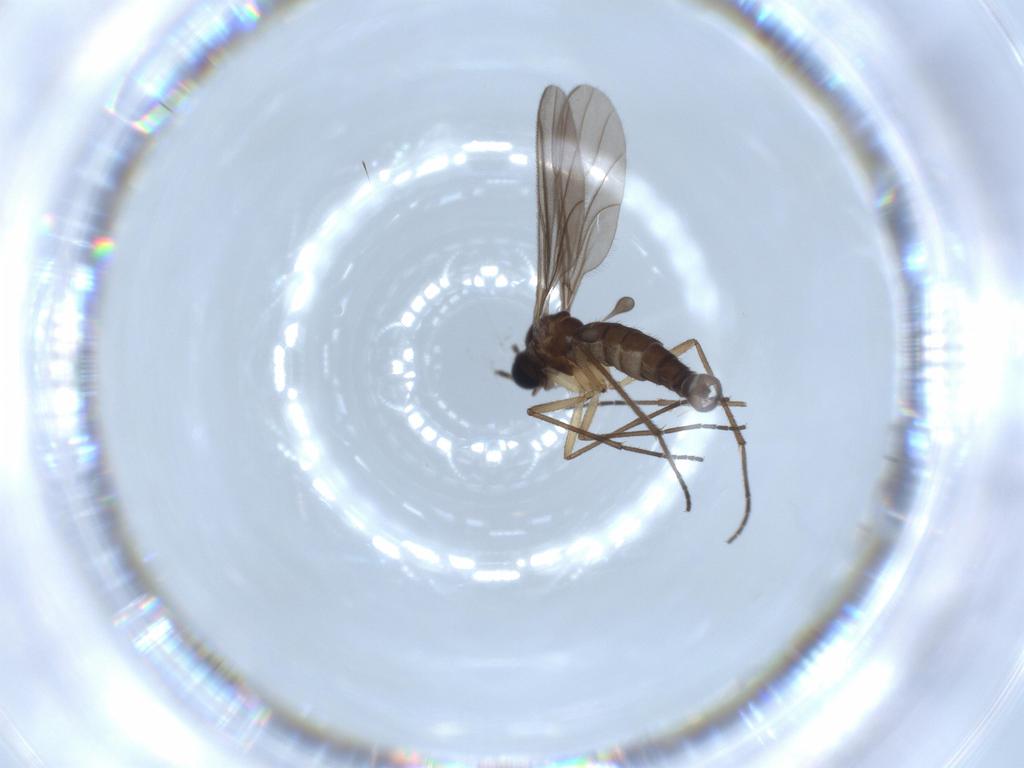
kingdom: Animalia
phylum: Arthropoda
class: Insecta
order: Diptera
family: Sciaridae
